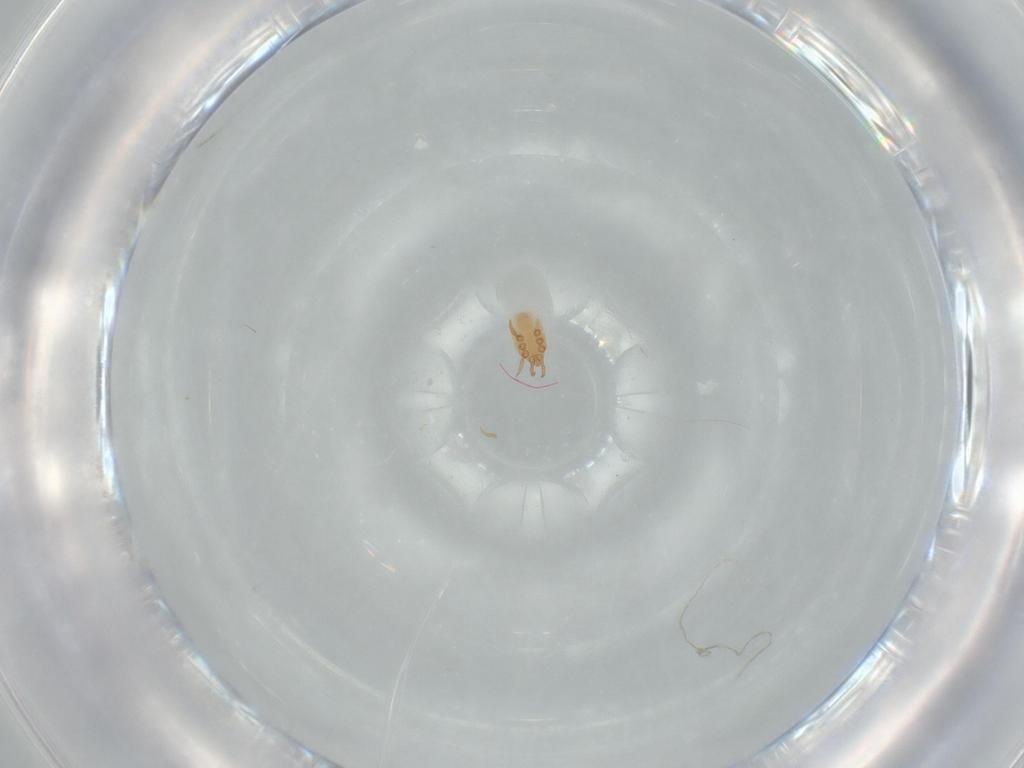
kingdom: Animalia
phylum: Arthropoda
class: Arachnida
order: Mesostigmata
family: Dinychidae
